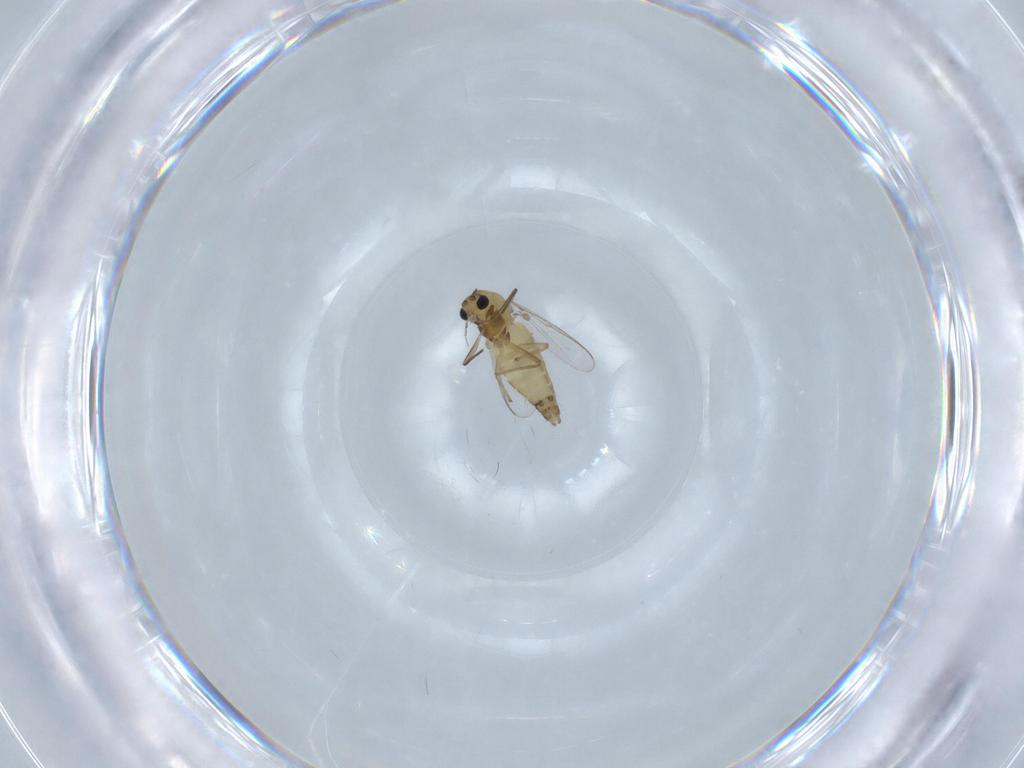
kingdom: Animalia
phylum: Arthropoda
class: Insecta
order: Diptera
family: Chironomidae
